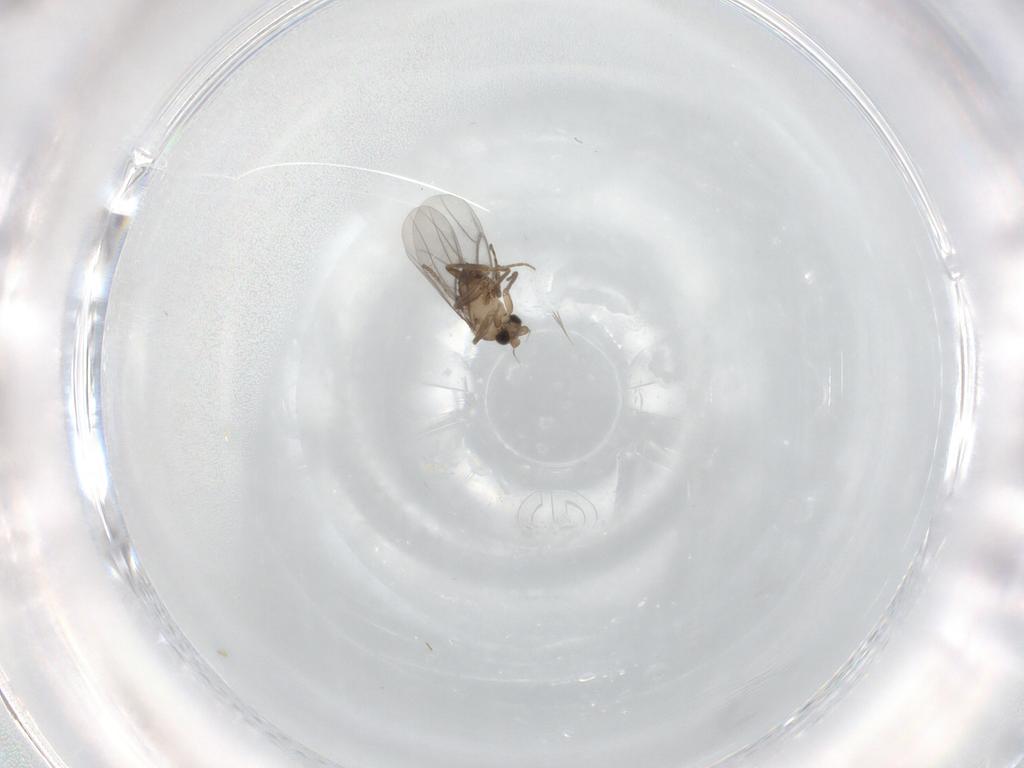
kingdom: Animalia
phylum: Arthropoda
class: Insecta
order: Diptera
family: Cecidomyiidae
